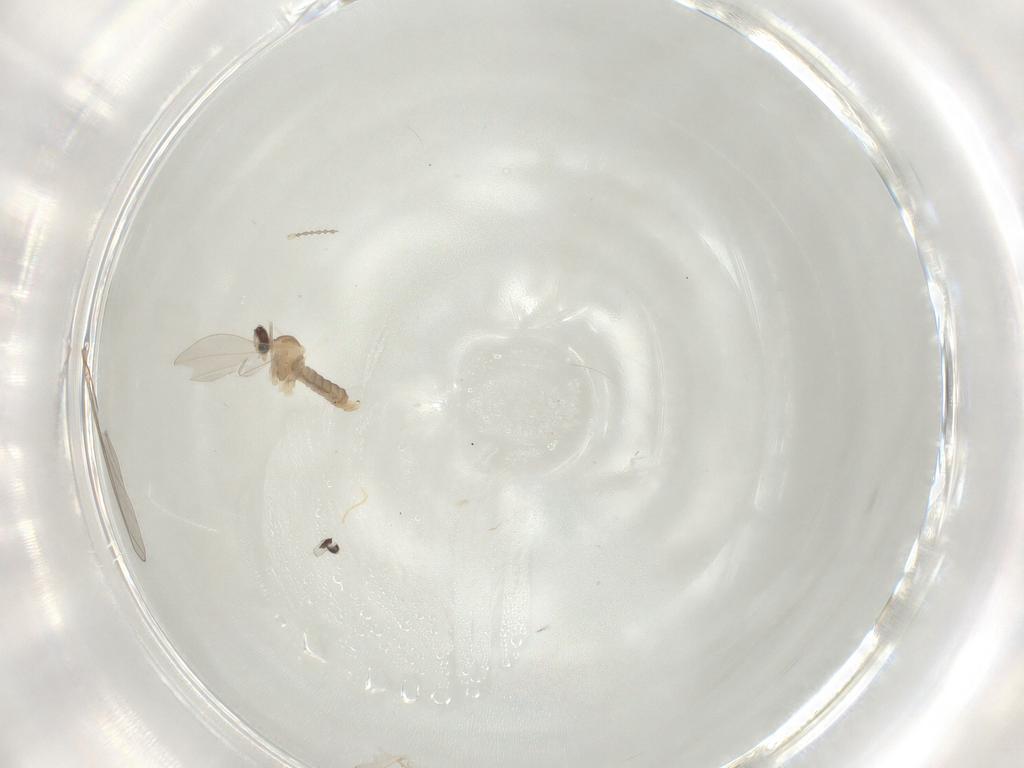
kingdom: Animalia
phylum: Arthropoda
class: Insecta
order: Diptera
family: Cecidomyiidae
